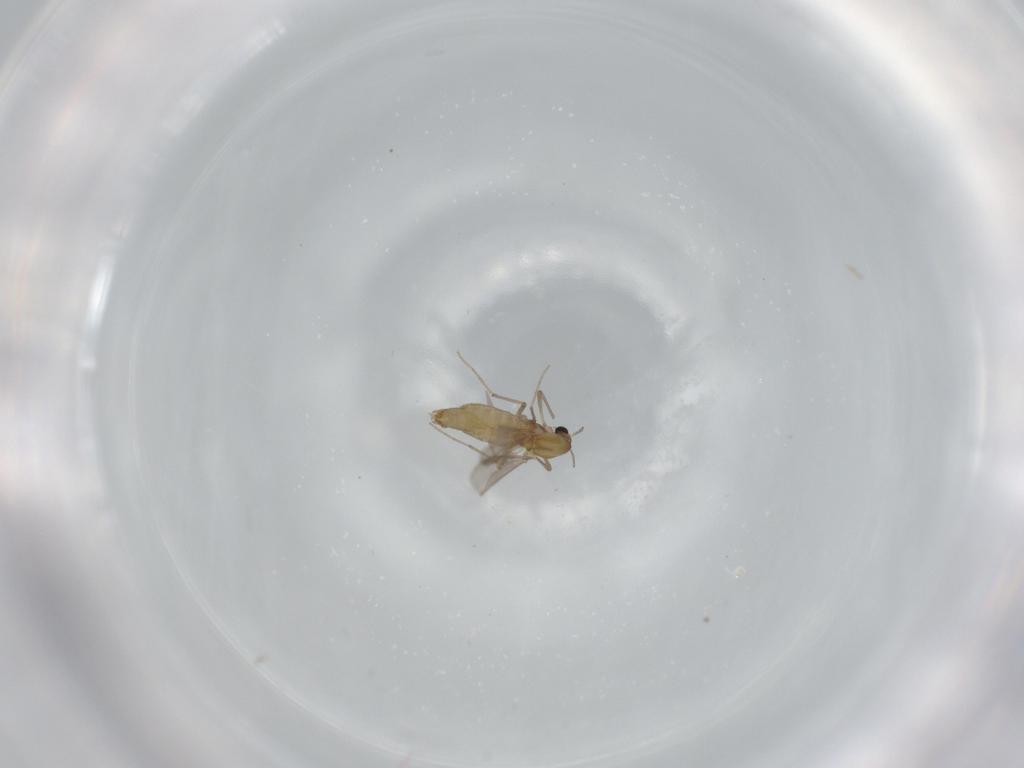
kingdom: Animalia
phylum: Arthropoda
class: Insecta
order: Diptera
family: Chironomidae
